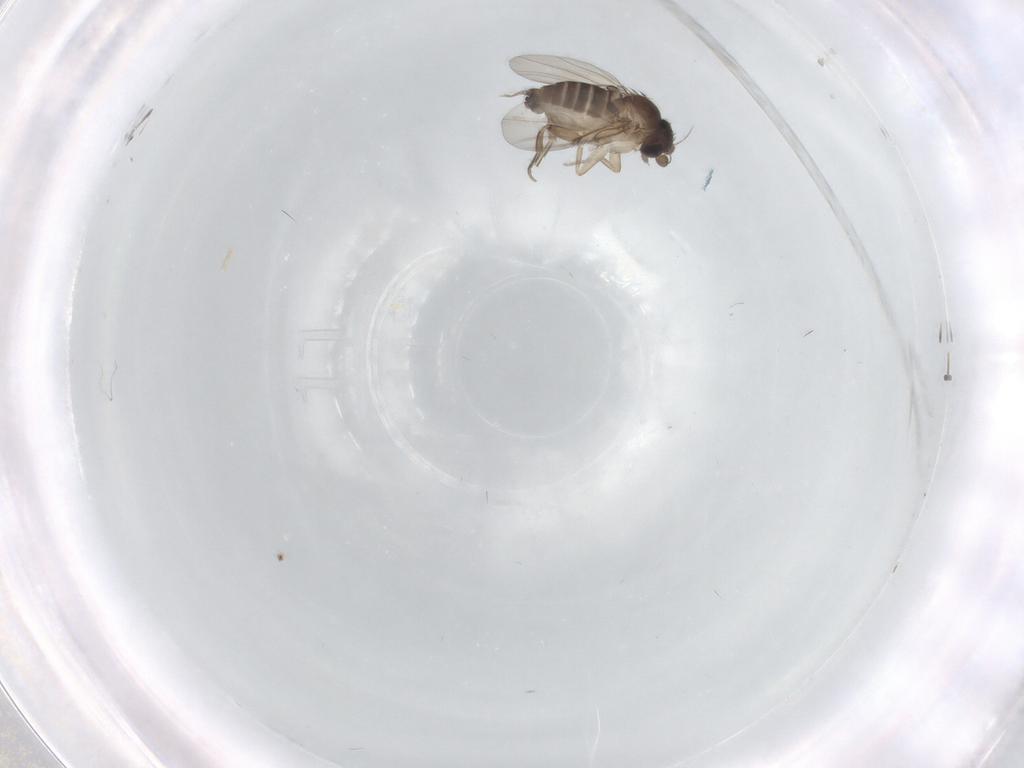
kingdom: Animalia
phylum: Arthropoda
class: Insecta
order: Diptera
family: Phoridae
